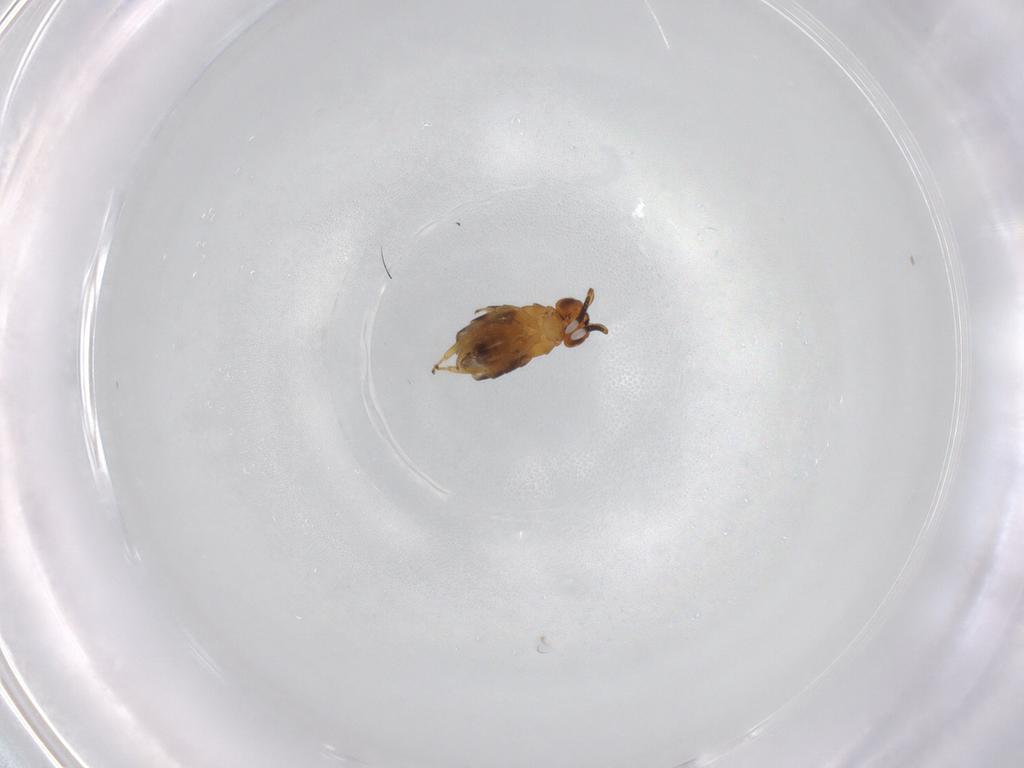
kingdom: Animalia
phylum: Arthropoda
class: Insecta
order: Hymenoptera
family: Encyrtidae
